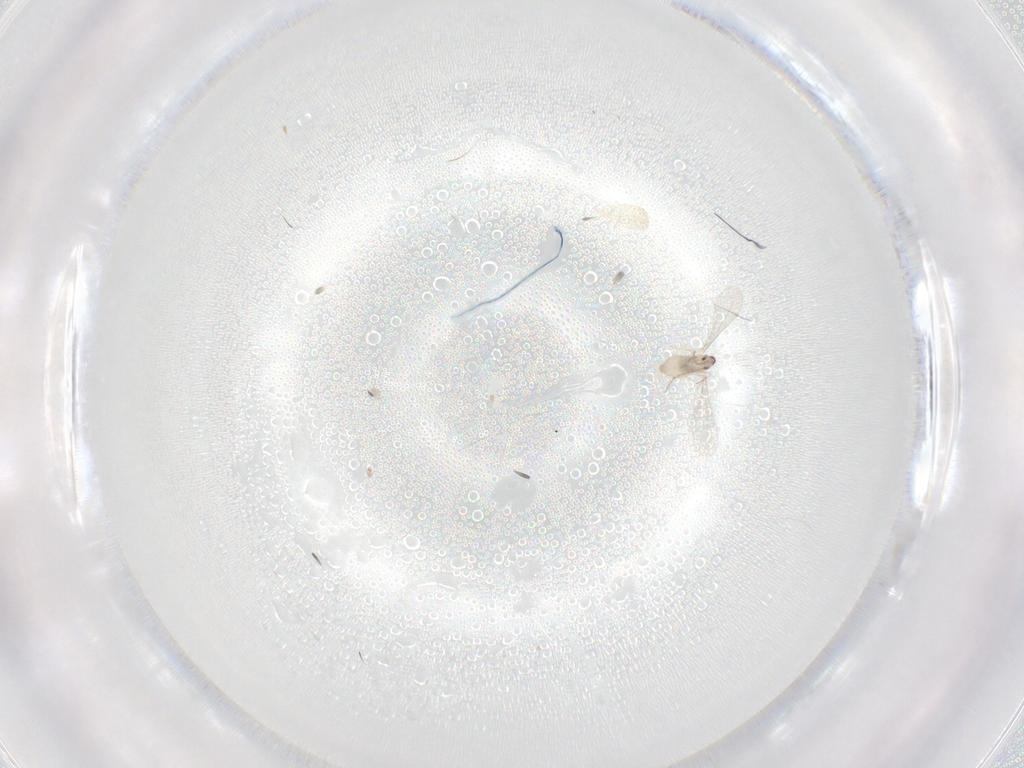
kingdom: Animalia
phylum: Arthropoda
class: Insecta
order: Diptera
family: Cecidomyiidae
